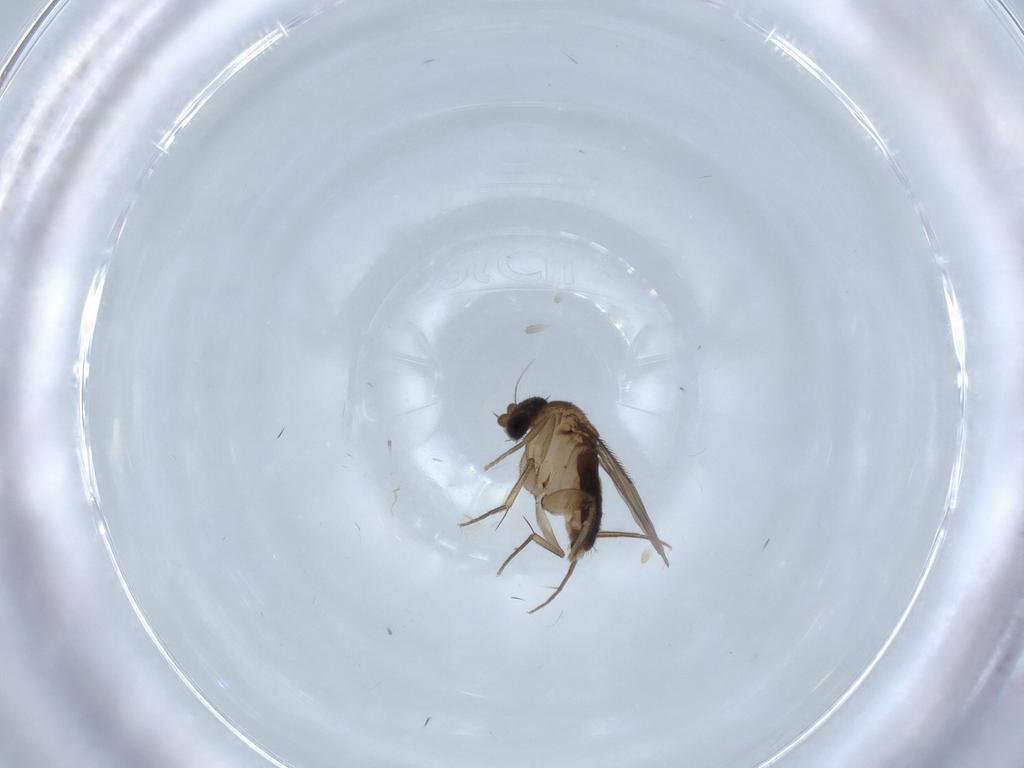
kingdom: Animalia
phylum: Arthropoda
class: Insecta
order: Diptera
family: Phoridae
